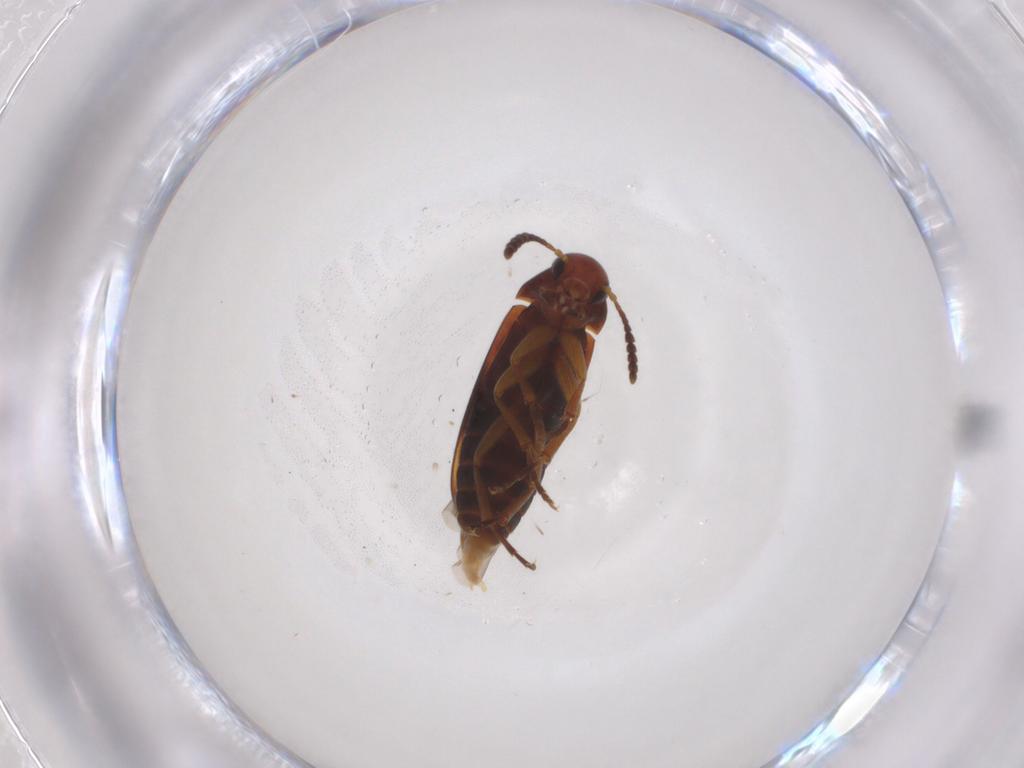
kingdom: Animalia
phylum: Arthropoda
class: Insecta
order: Coleoptera
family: Scraptiidae
